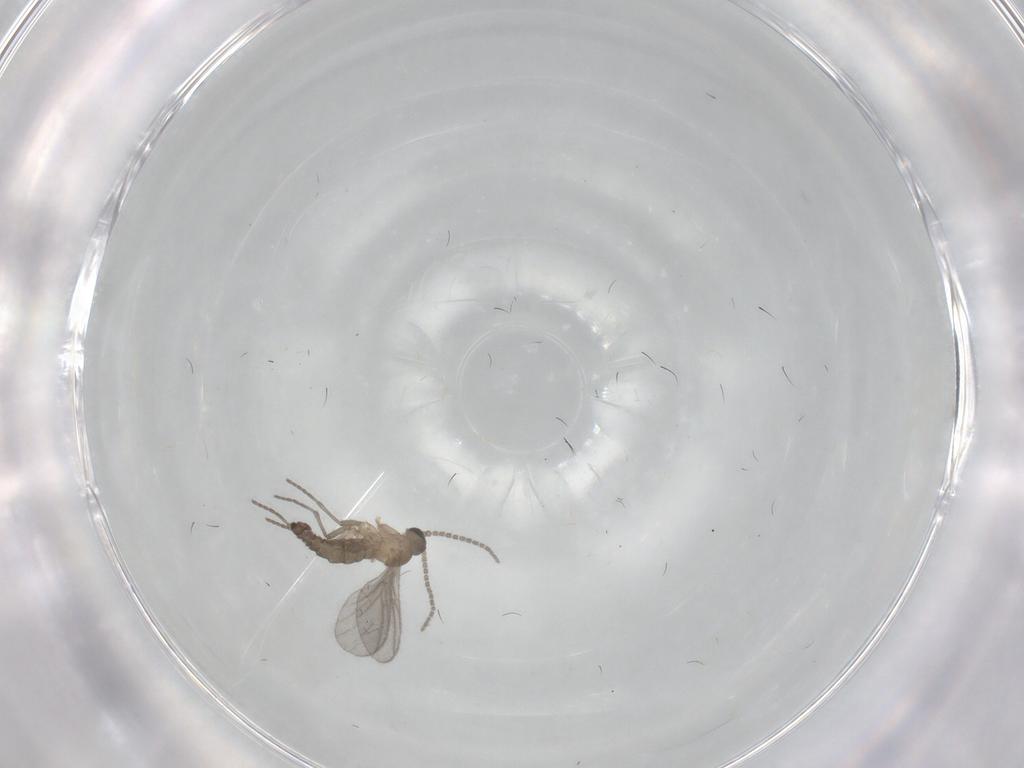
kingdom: Animalia
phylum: Arthropoda
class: Insecta
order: Diptera
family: Sciaridae
